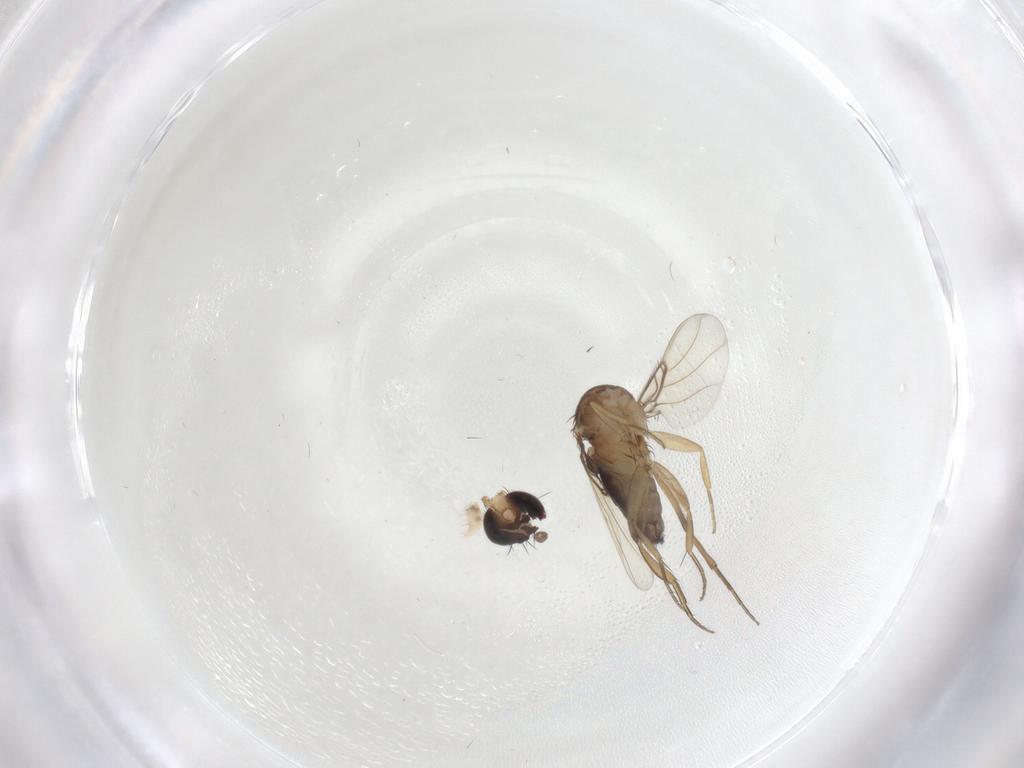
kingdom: Animalia
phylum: Arthropoda
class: Insecta
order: Diptera
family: Phoridae
